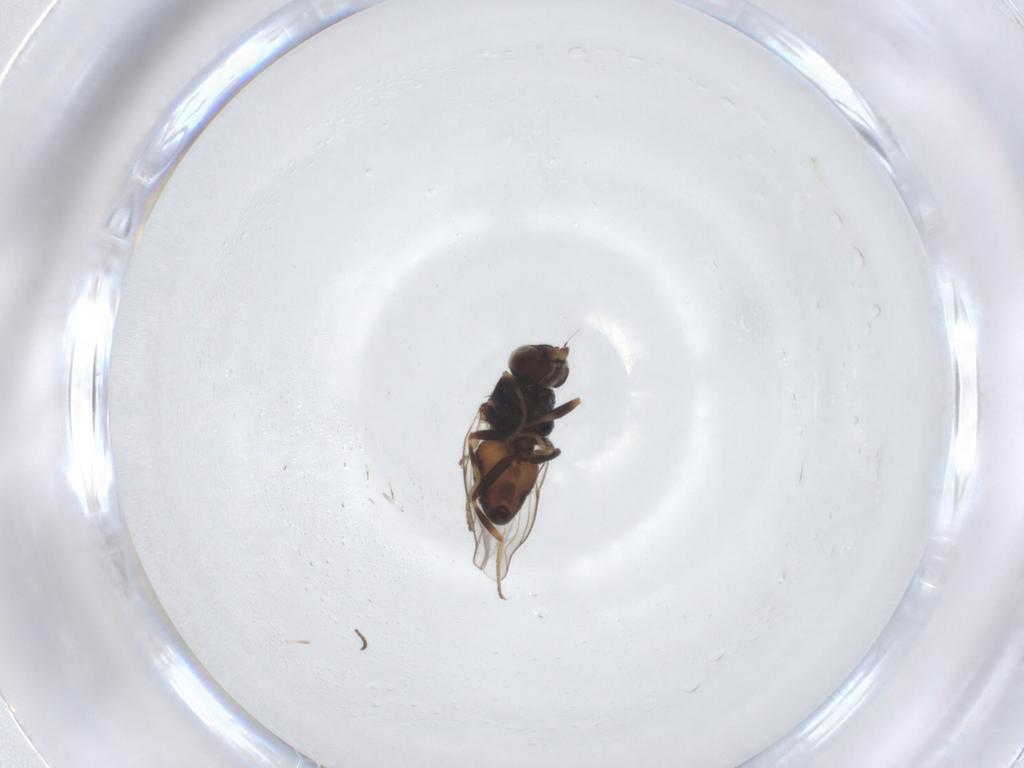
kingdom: Animalia
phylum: Arthropoda
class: Insecta
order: Diptera
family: Chloropidae
